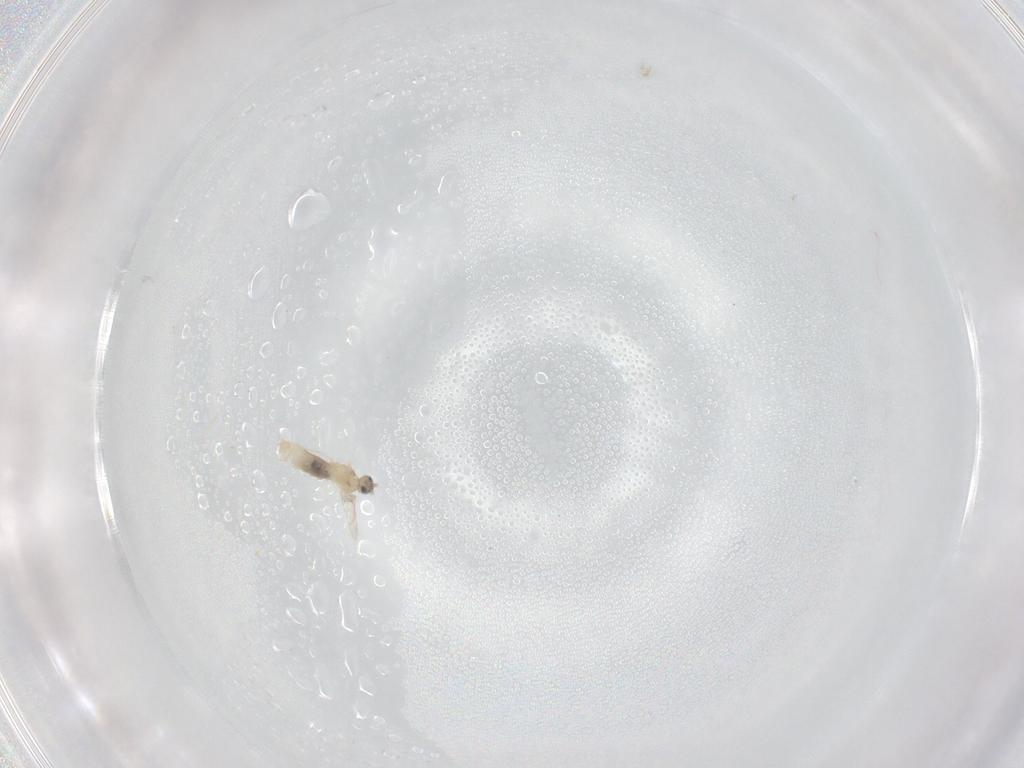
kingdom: Animalia
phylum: Arthropoda
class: Insecta
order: Diptera
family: Cecidomyiidae
